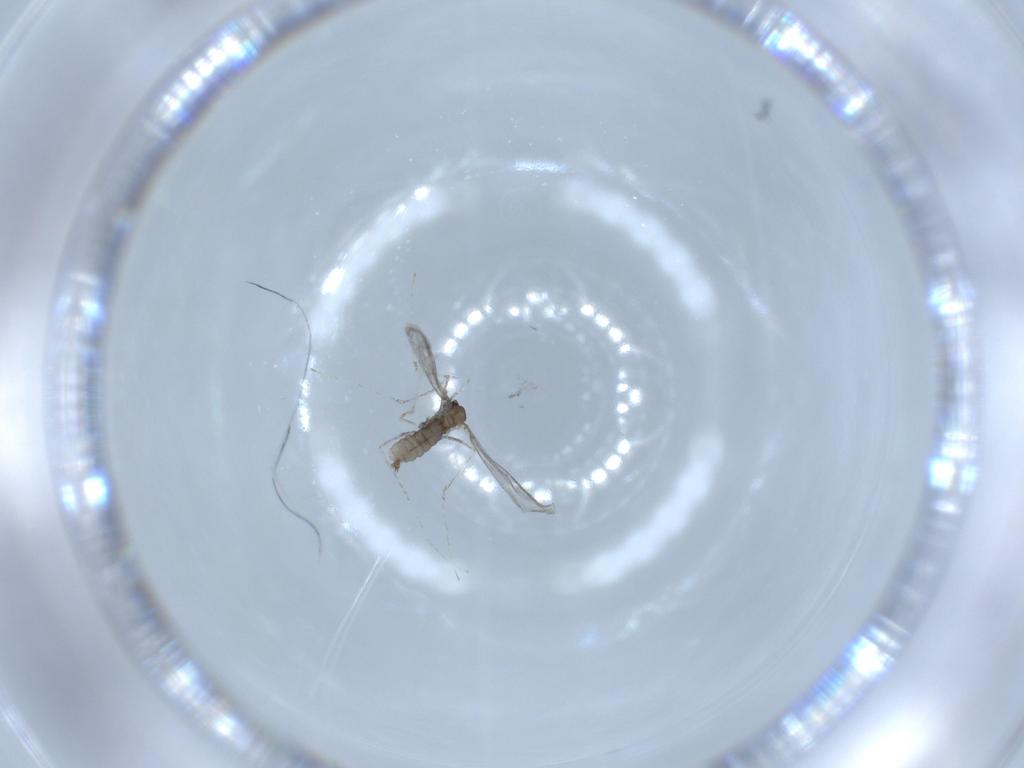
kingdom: Animalia
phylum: Arthropoda
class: Insecta
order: Diptera
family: Cecidomyiidae
